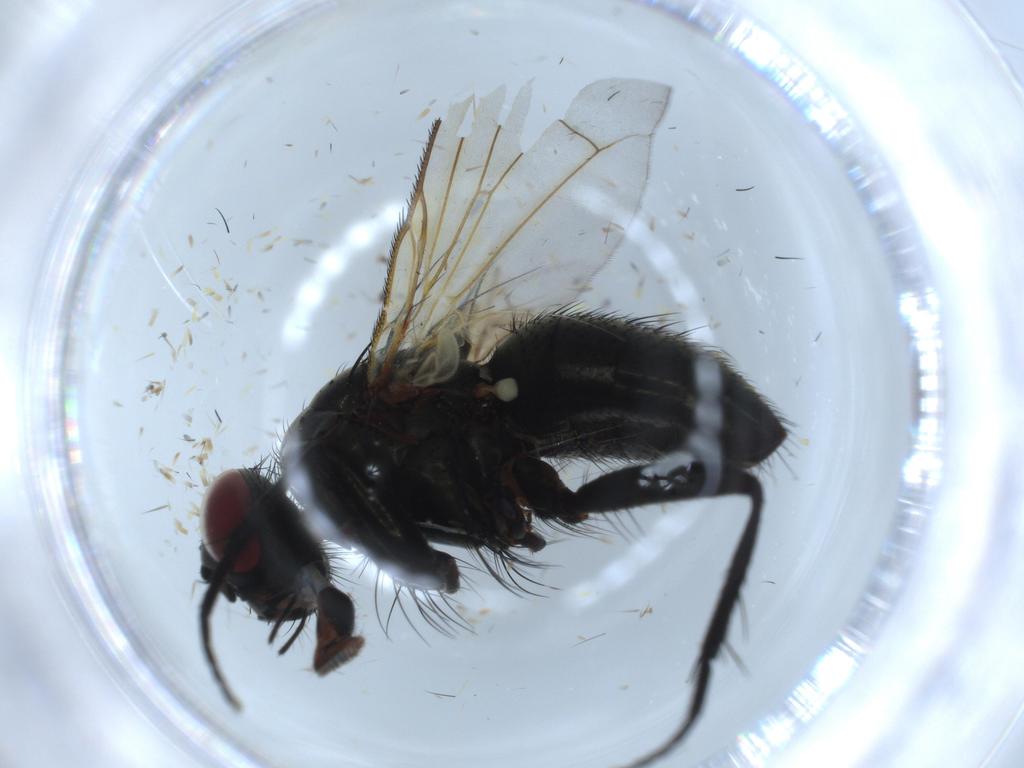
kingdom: Animalia
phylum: Arthropoda
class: Insecta
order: Diptera
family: Muscidae
